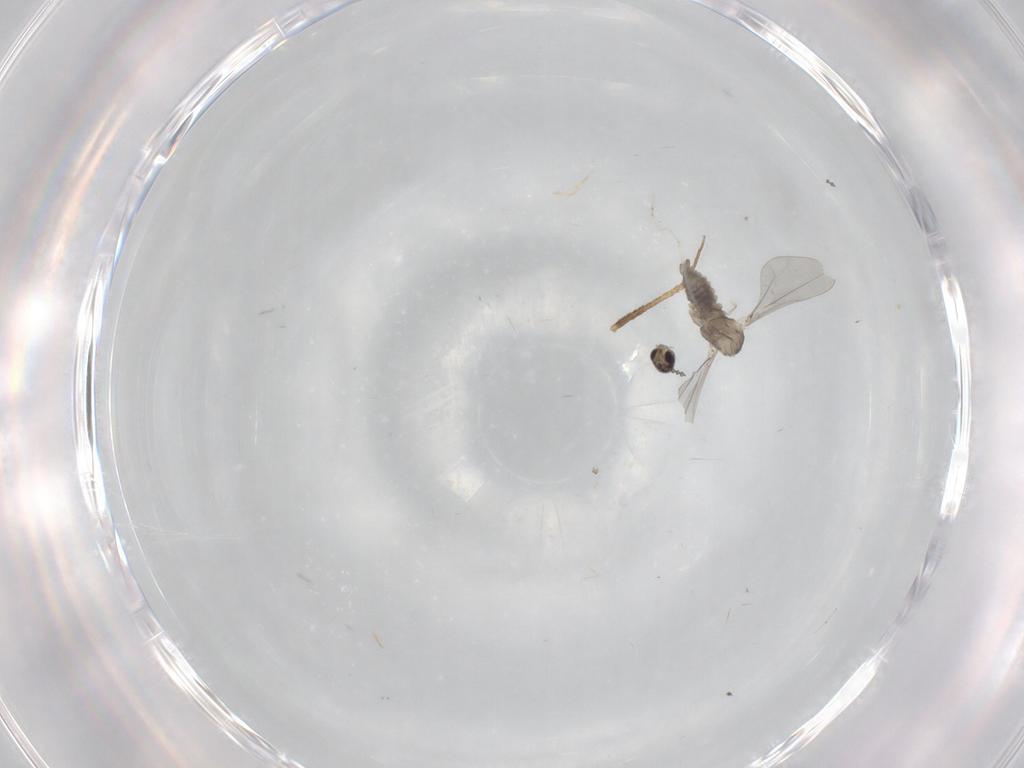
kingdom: Animalia
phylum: Arthropoda
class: Insecta
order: Diptera
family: Cecidomyiidae
